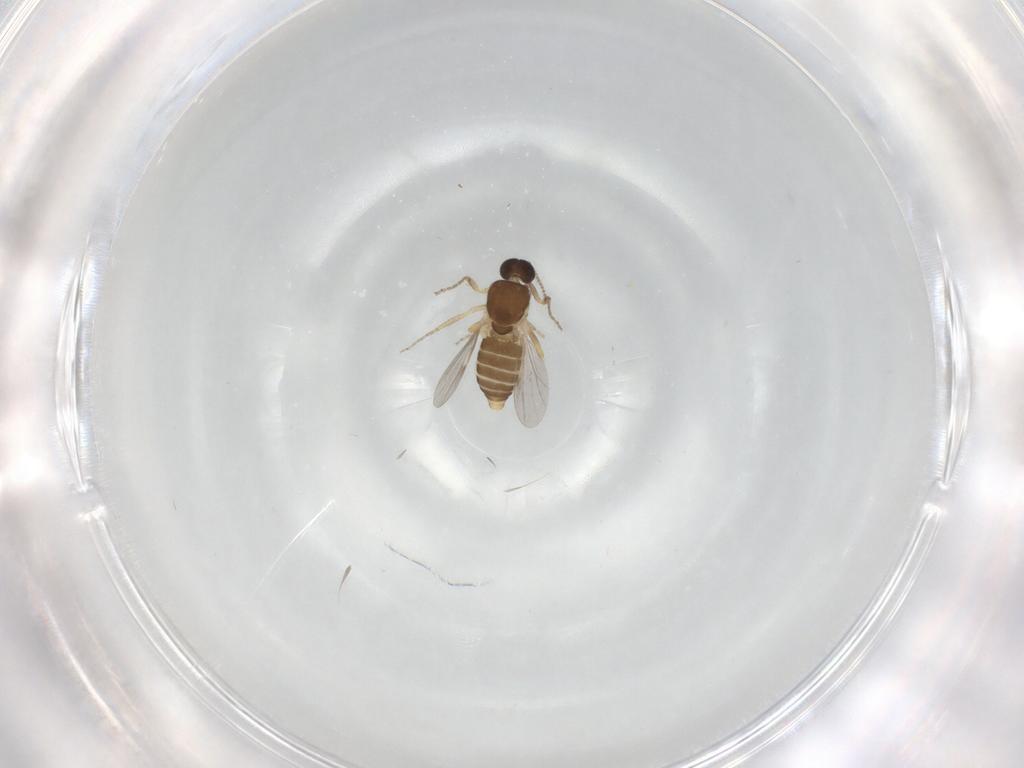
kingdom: Animalia
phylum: Arthropoda
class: Insecta
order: Diptera
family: Ceratopogonidae
